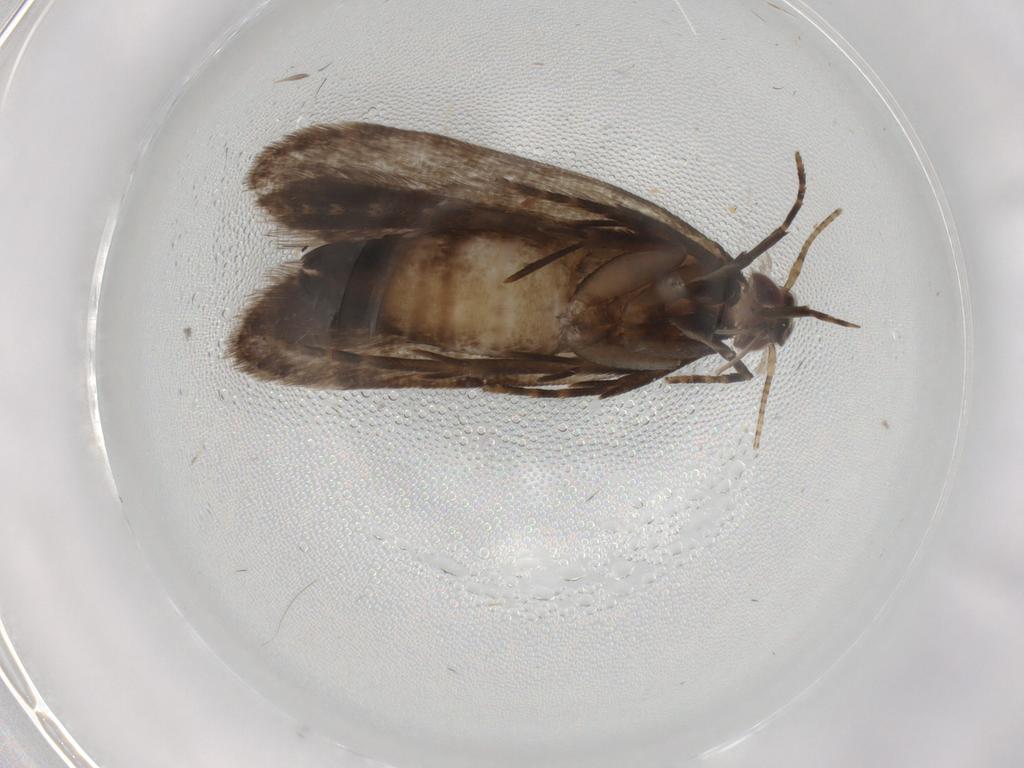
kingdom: Animalia
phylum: Arthropoda
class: Insecta
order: Lepidoptera
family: Gelechiidae
